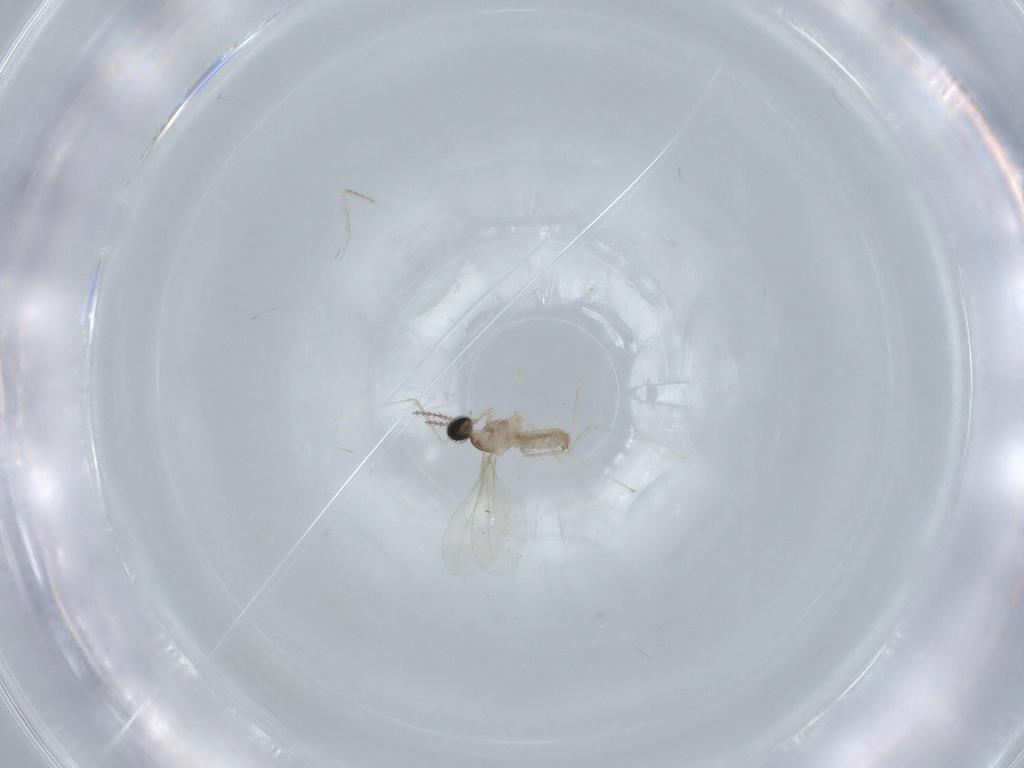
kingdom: Animalia
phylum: Arthropoda
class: Insecta
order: Diptera
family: Cecidomyiidae
